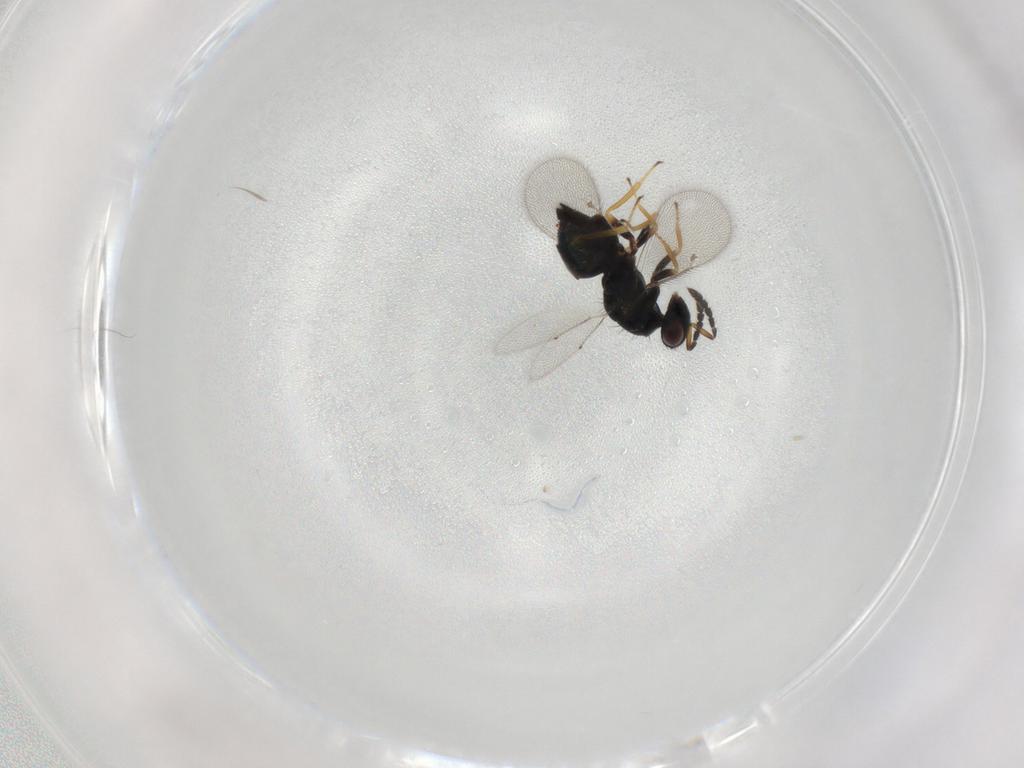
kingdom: Animalia
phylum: Arthropoda
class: Insecta
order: Hymenoptera
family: Eulophidae
